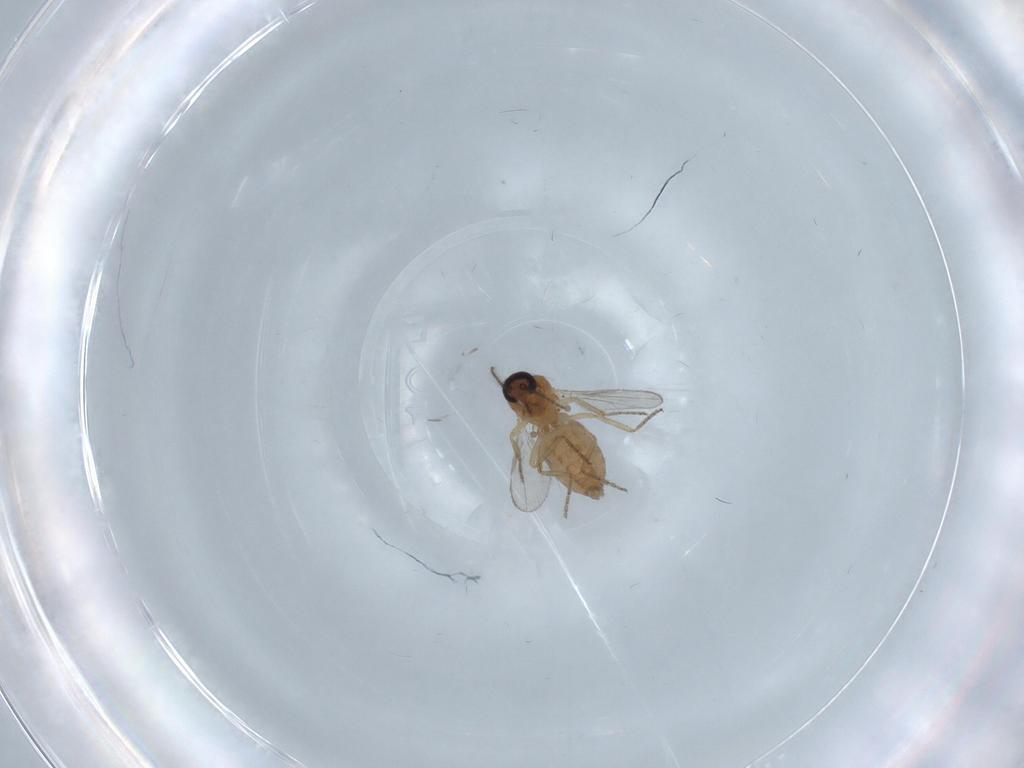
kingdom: Animalia
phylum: Arthropoda
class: Insecta
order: Diptera
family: Ceratopogonidae
